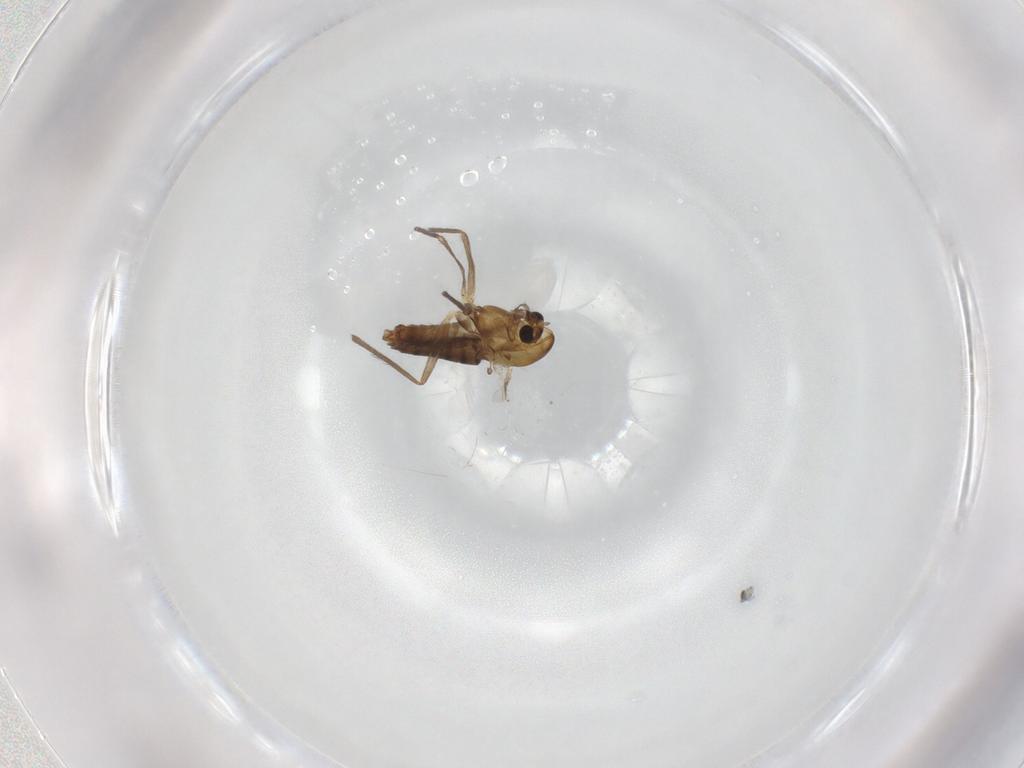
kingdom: Animalia
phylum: Arthropoda
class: Insecta
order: Diptera
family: Chironomidae
